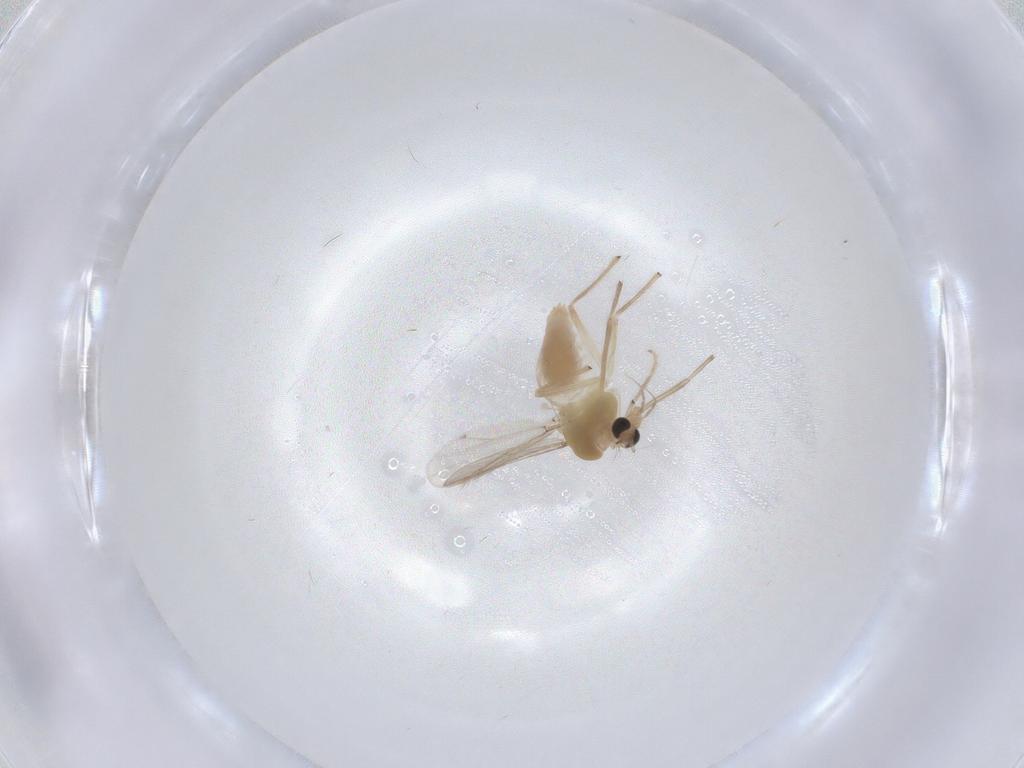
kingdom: Animalia
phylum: Arthropoda
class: Insecta
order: Diptera
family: Chironomidae
